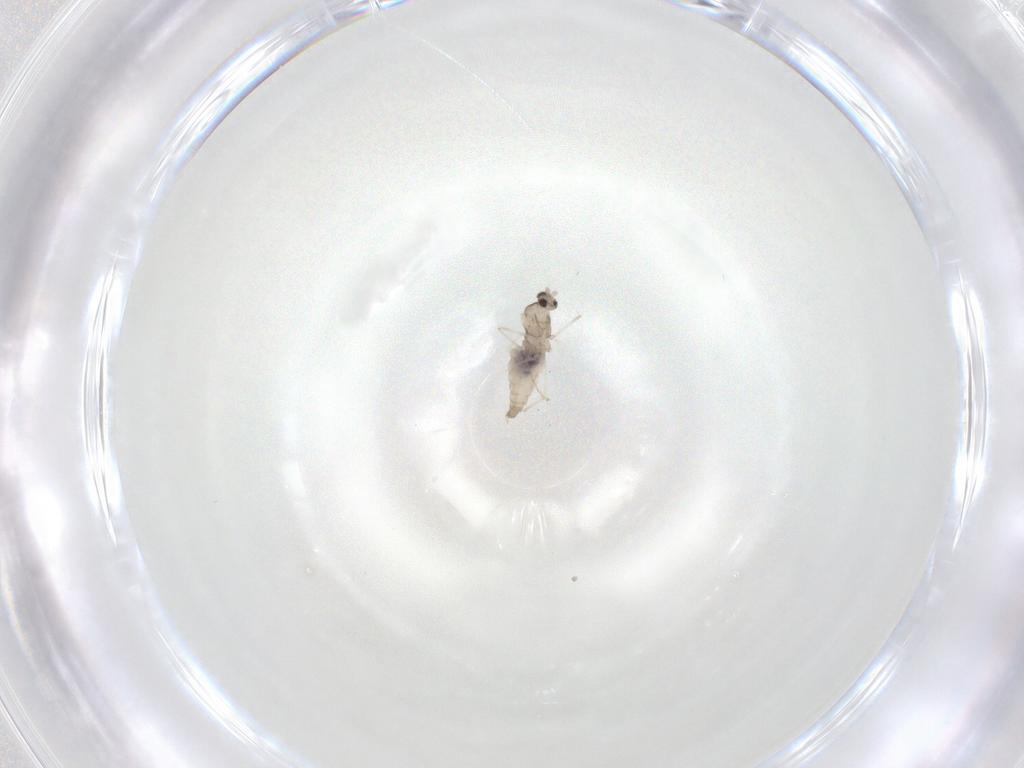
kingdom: Animalia
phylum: Arthropoda
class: Insecta
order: Diptera
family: Cecidomyiidae
